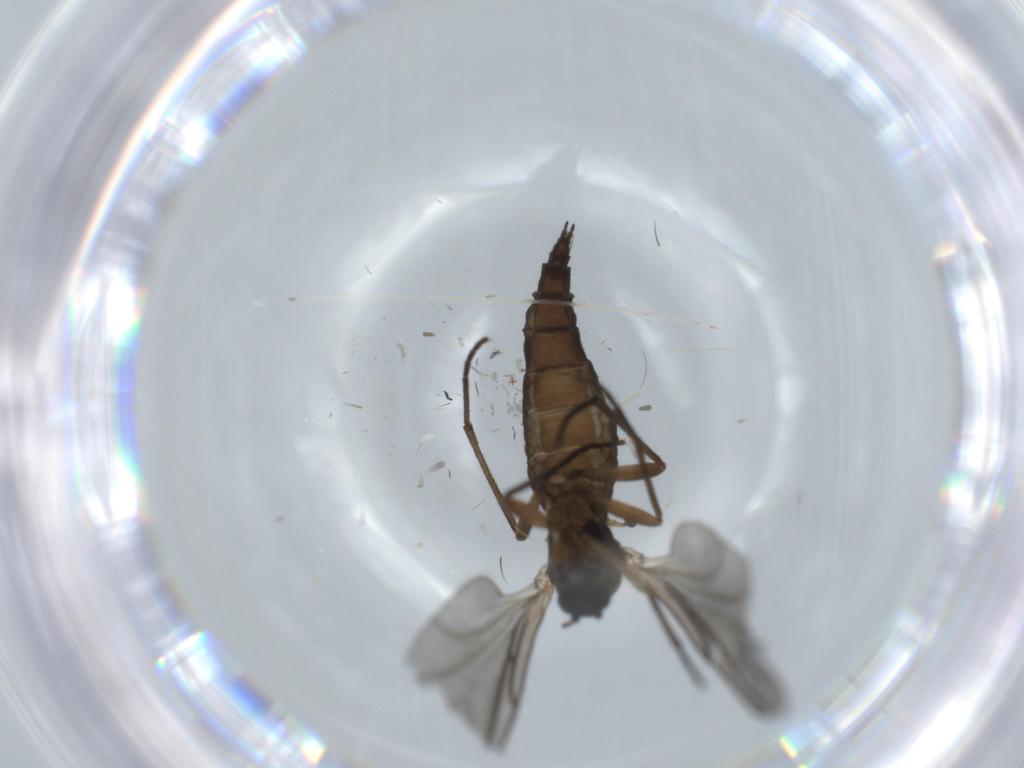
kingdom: Animalia
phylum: Arthropoda
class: Insecta
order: Diptera
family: Sciaridae
